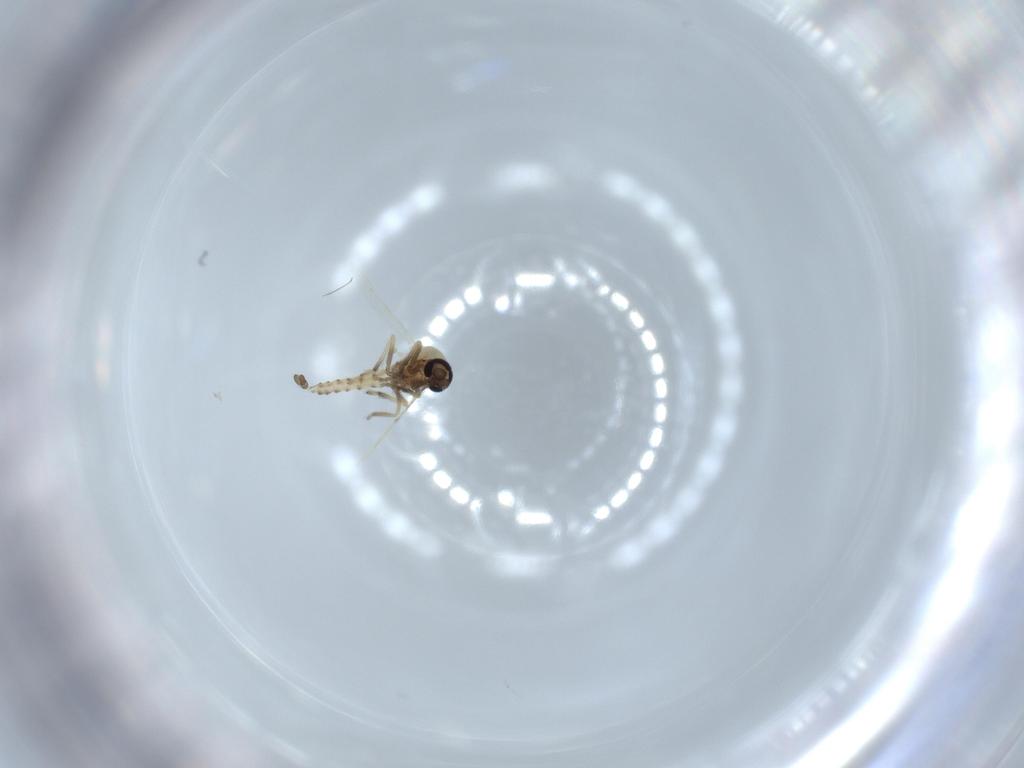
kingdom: Animalia
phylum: Arthropoda
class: Insecta
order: Diptera
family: Ceratopogonidae
